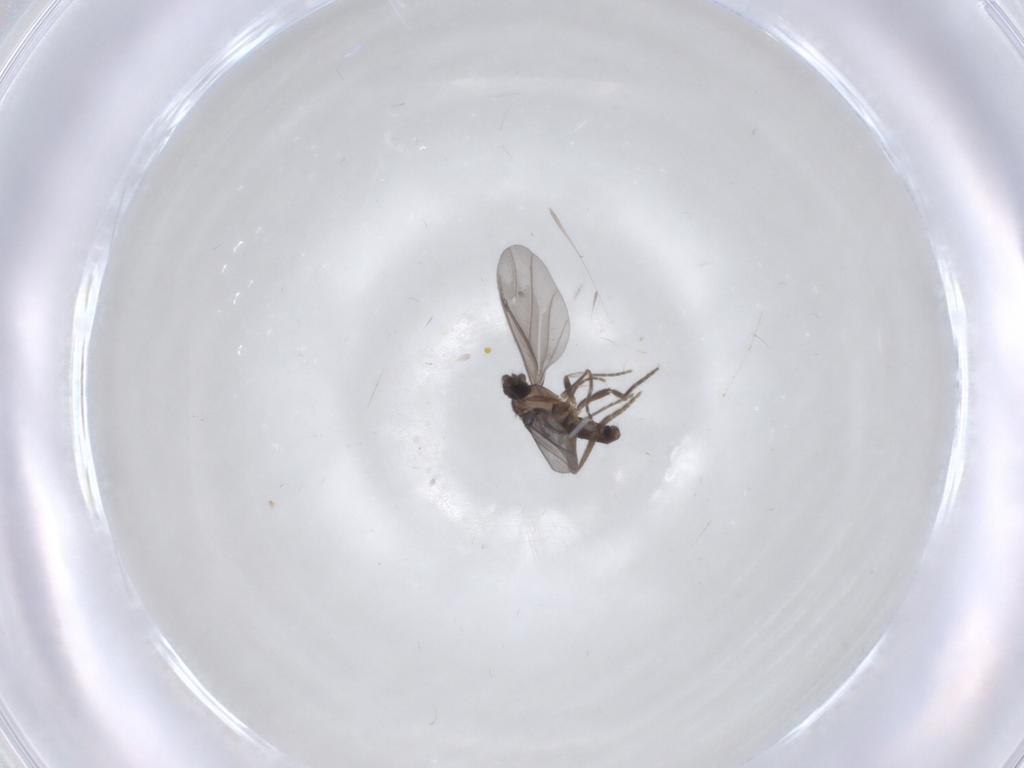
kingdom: Animalia
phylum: Arthropoda
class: Insecta
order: Diptera
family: Phoridae
